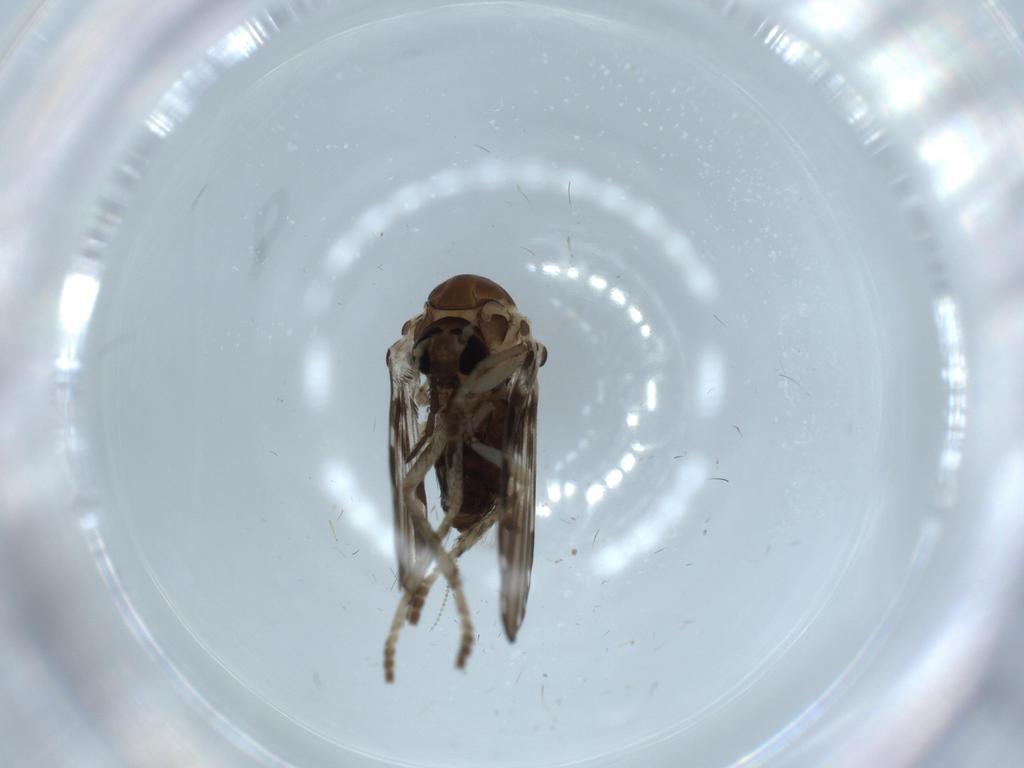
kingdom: Animalia
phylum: Arthropoda
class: Insecta
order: Diptera
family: Psychodidae
